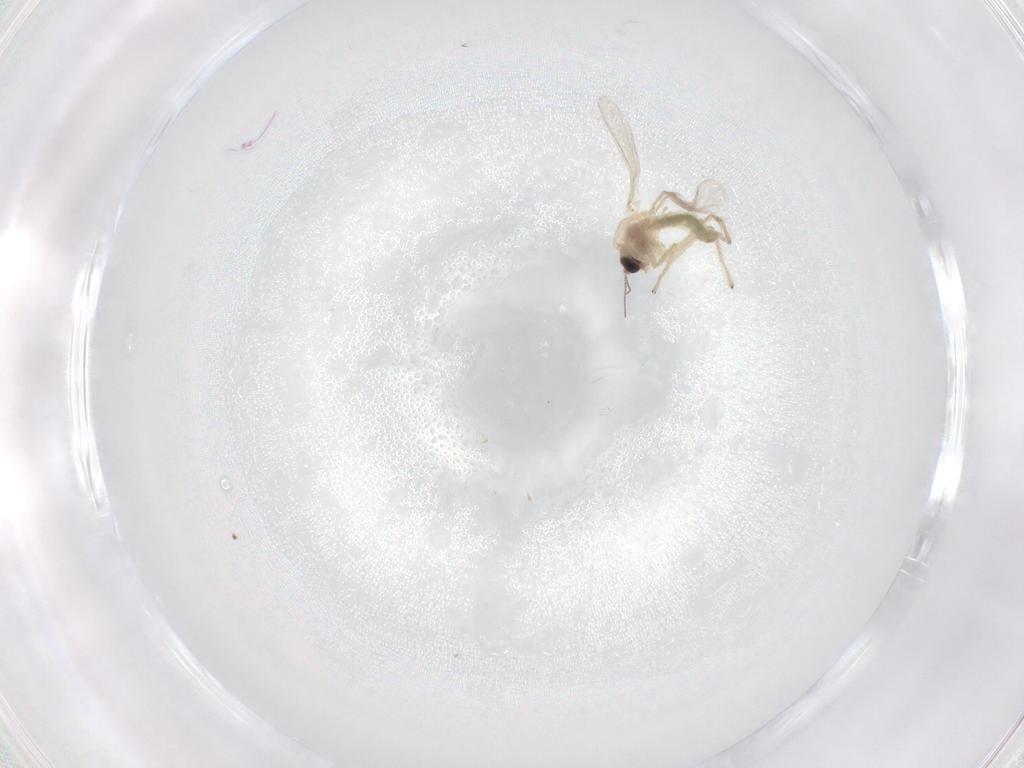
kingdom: Animalia
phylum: Arthropoda
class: Insecta
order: Diptera
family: Chironomidae
